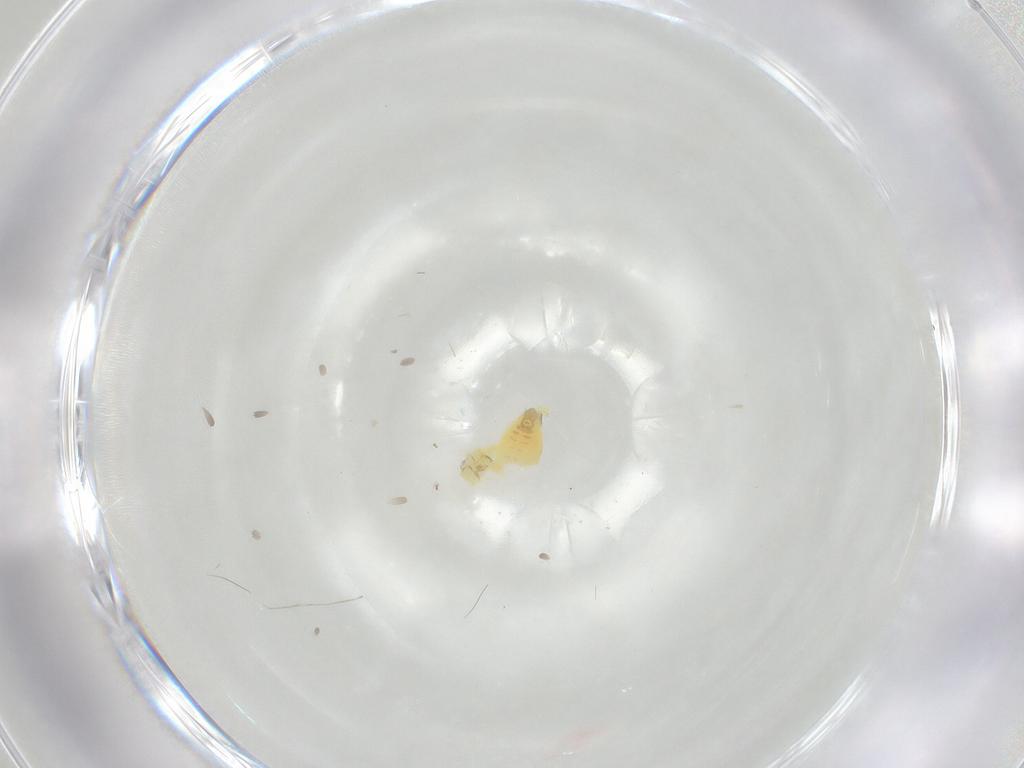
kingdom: Animalia
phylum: Arthropoda
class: Insecta
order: Hemiptera
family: Aleyrodidae
